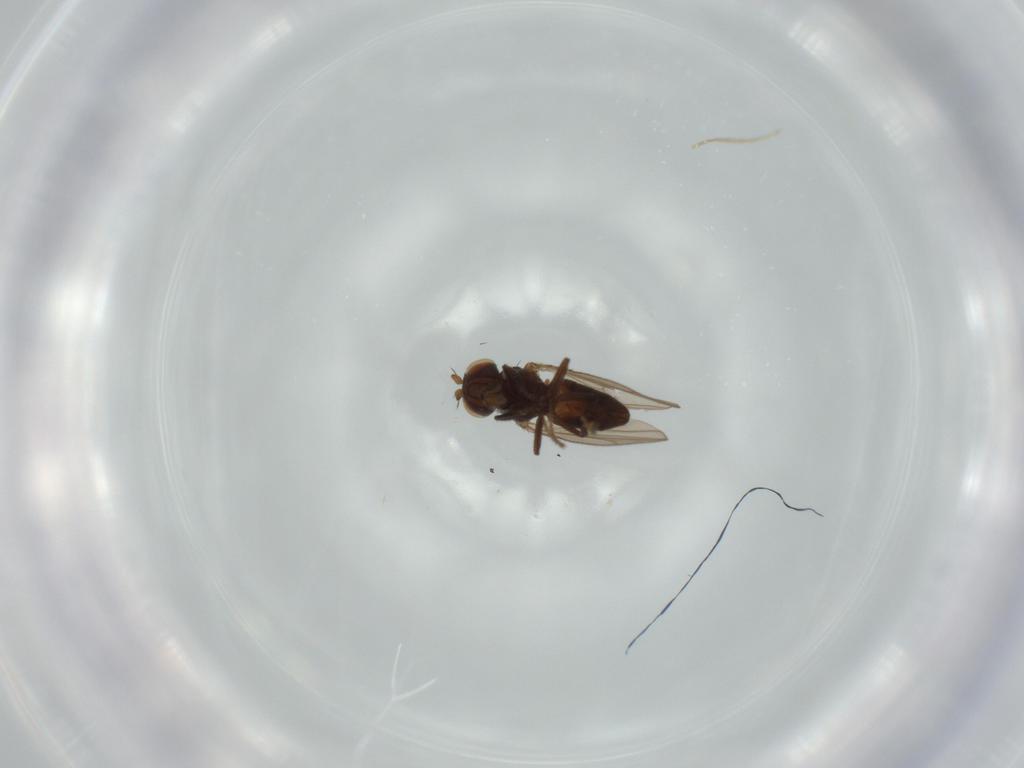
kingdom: Animalia
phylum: Arthropoda
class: Insecta
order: Diptera
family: Ephydridae
